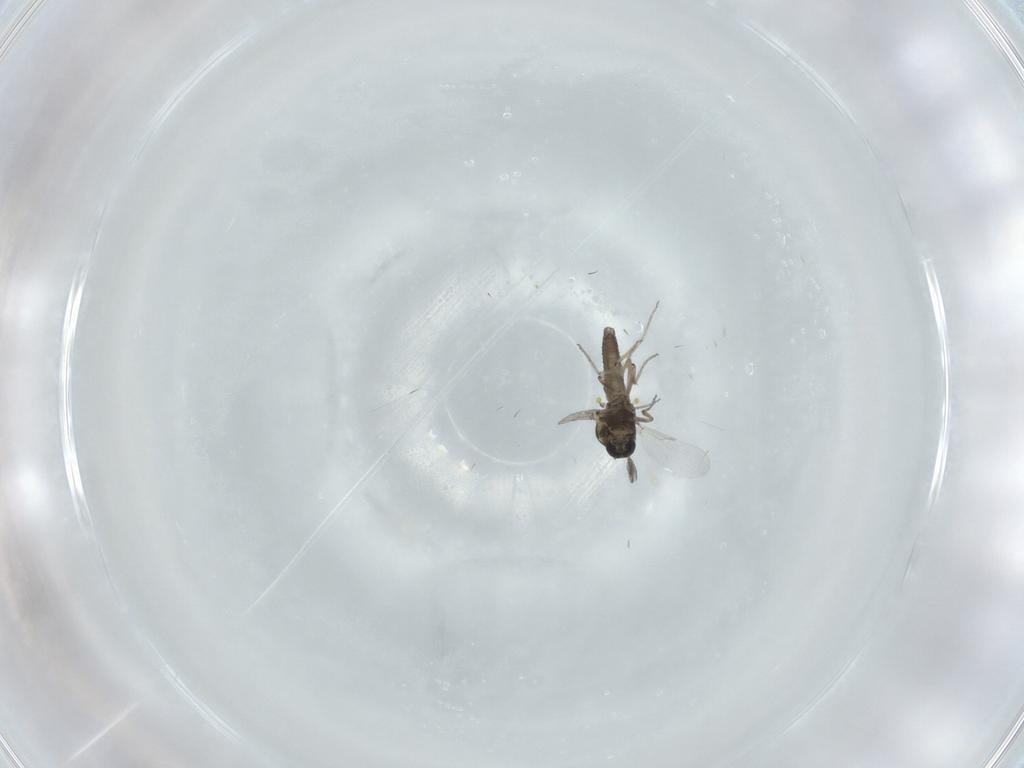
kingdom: Animalia
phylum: Arthropoda
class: Insecta
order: Diptera
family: Ceratopogonidae
